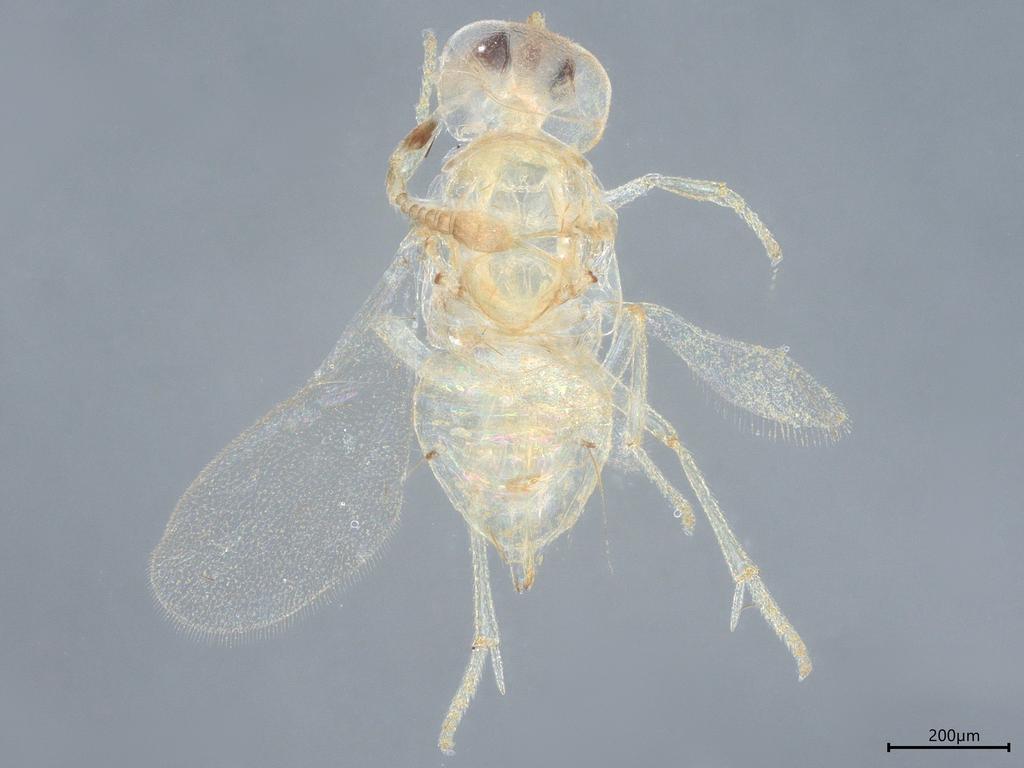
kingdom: Animalia
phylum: Arthropoda
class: Insecta
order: Hymenoptera
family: Encyrtidae
